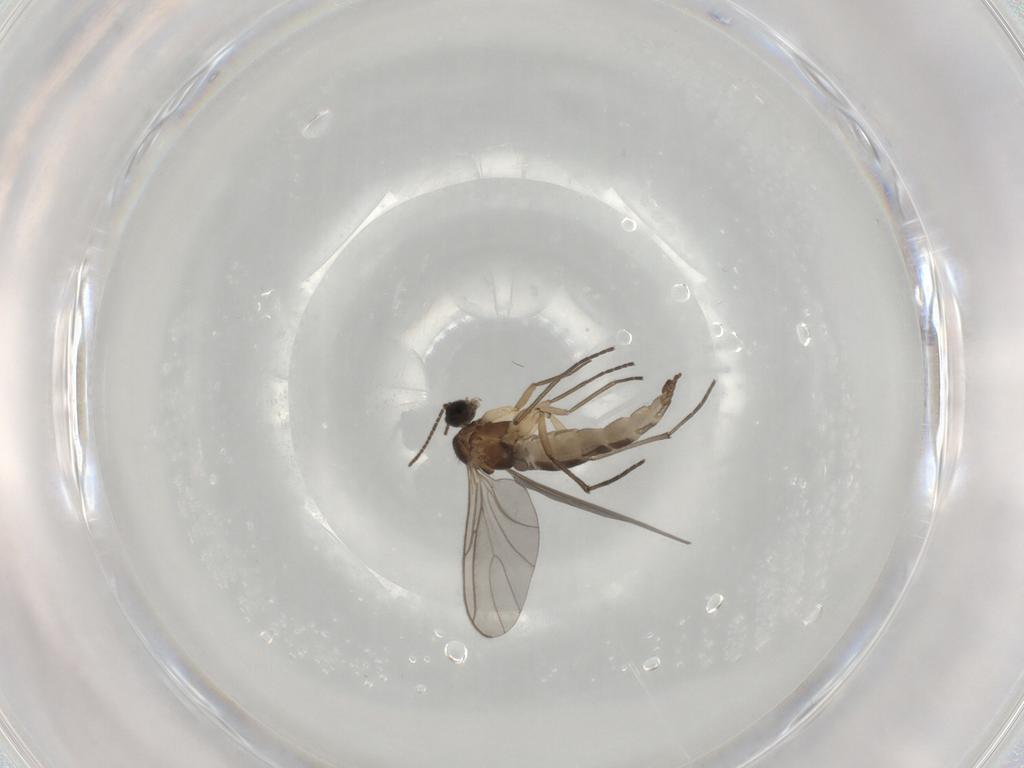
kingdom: Animalia
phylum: Arthropoda
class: Insecta
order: Diptera
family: Sciaridae
